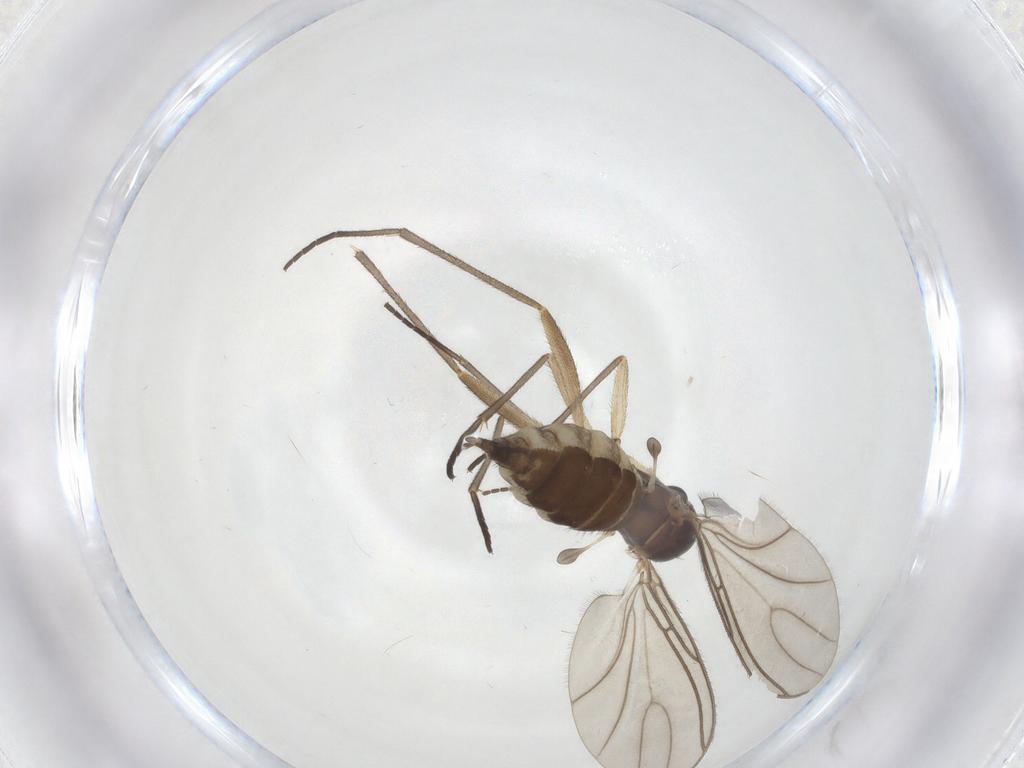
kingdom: Animalia
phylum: Arthropoda
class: Insecta
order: Diptera
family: Sciaridae
